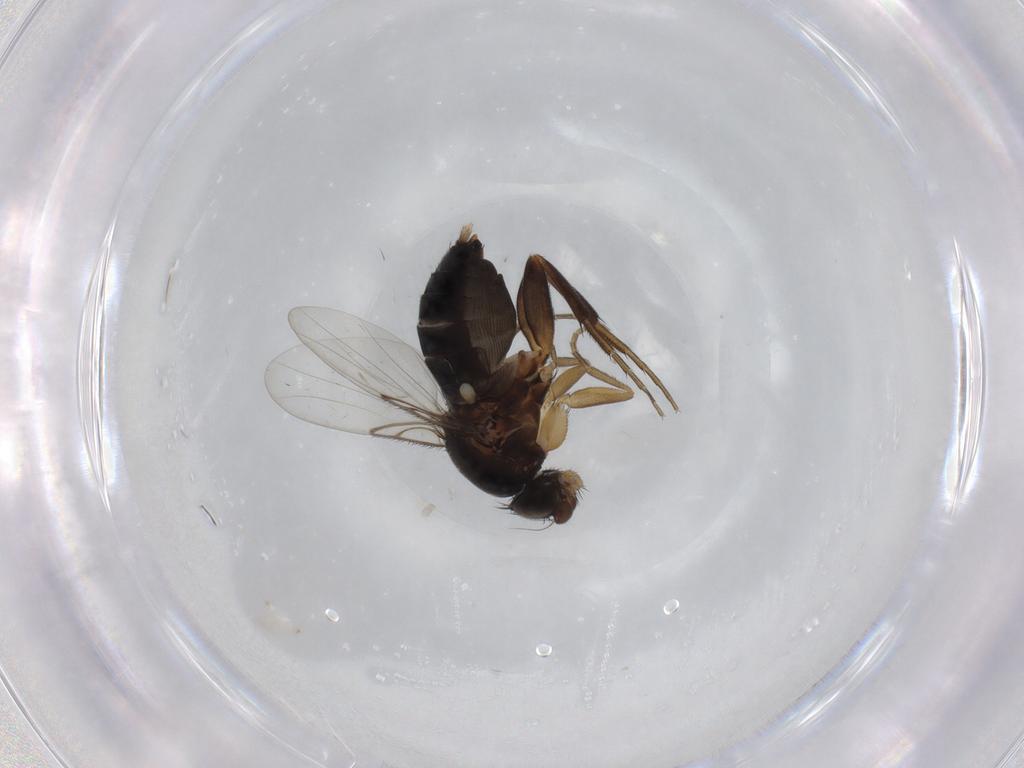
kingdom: Animalia
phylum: Arthropoda
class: Insecta
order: Diptera
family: Phoridae
